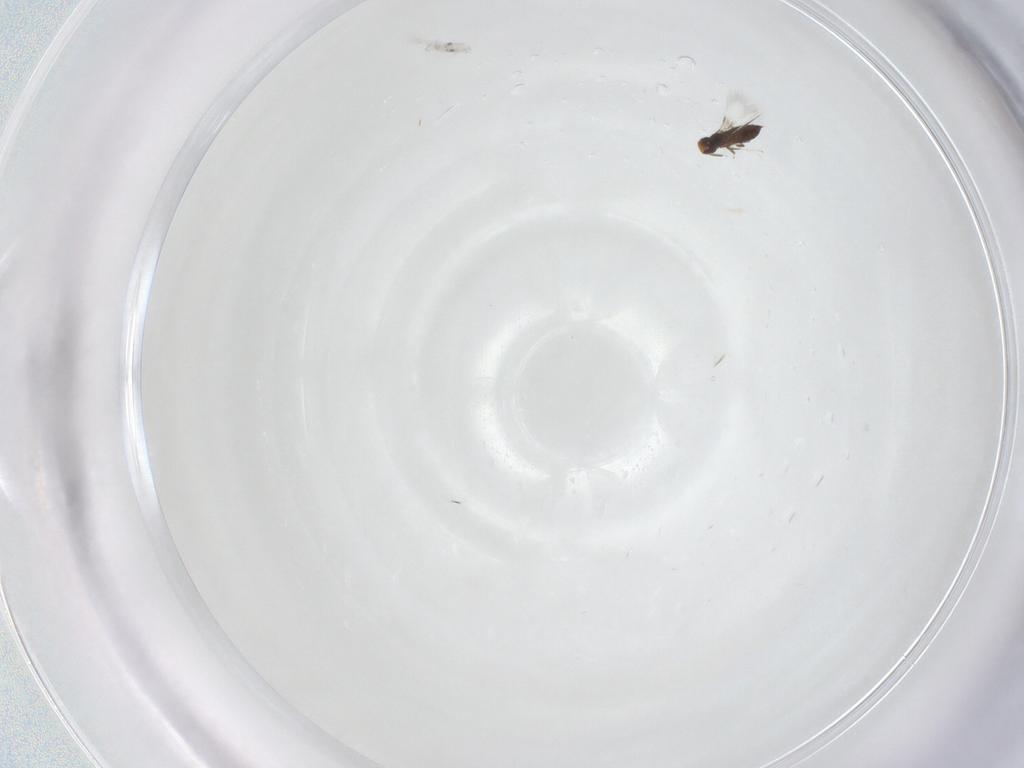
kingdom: Animalia
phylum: Arthropoda
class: Insecta
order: Hymenoptera
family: Signiphoridae
